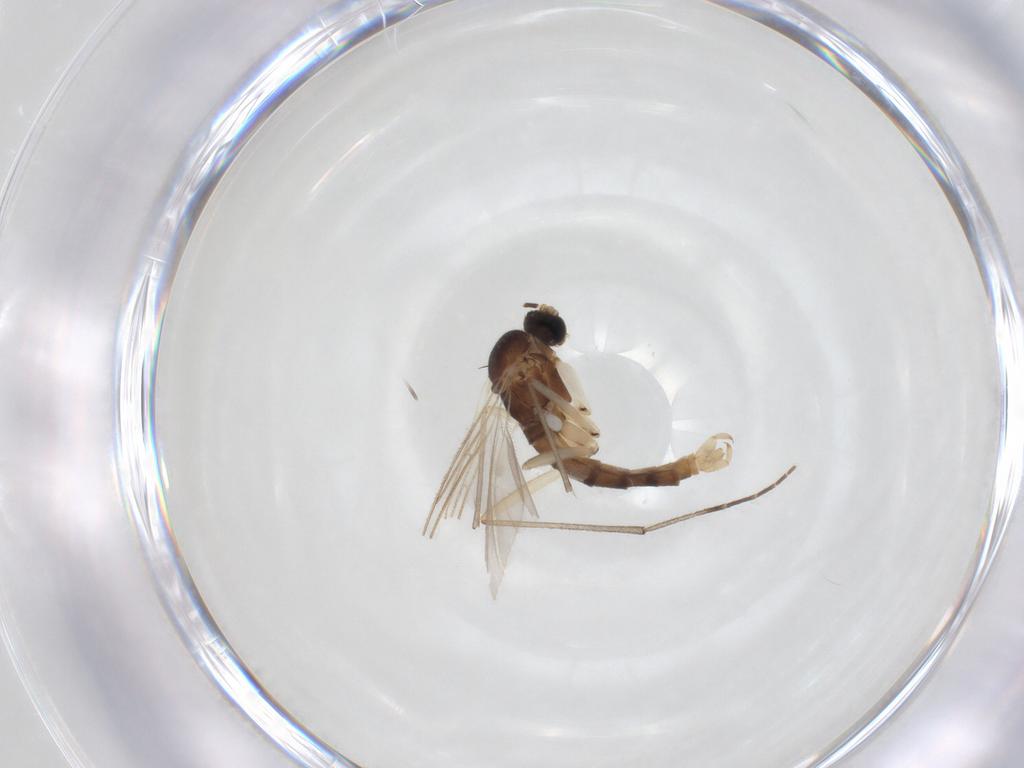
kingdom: Animalia
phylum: Arthropoda
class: Insecta
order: Diptera
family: Sciaridae
